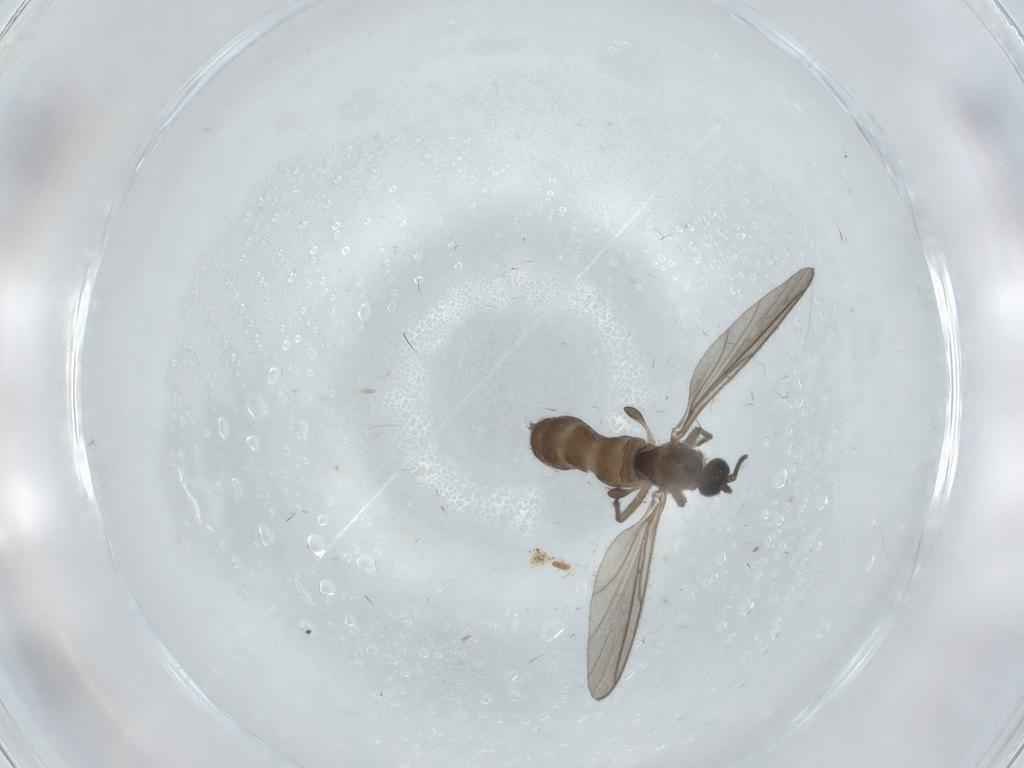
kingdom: Animalia
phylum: Arthropoda
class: Insecta
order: Diptera
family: Sciaridae
